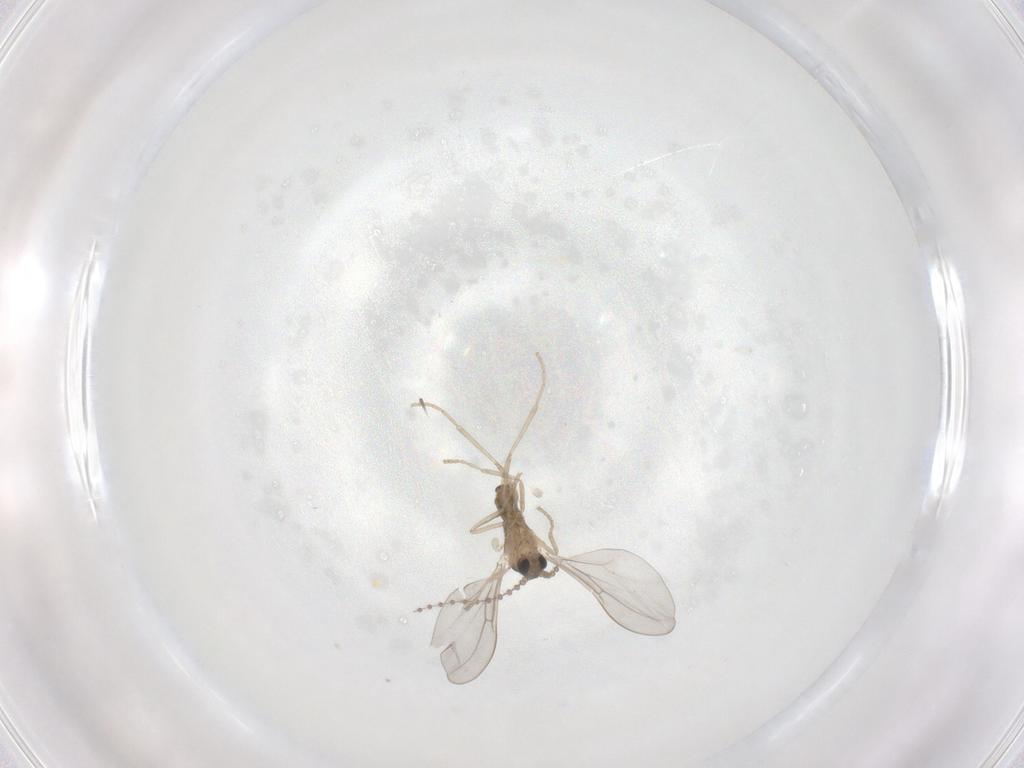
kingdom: Animalia
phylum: Arthropoda
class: Insecta
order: Diptera
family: Cecidomyiidae
